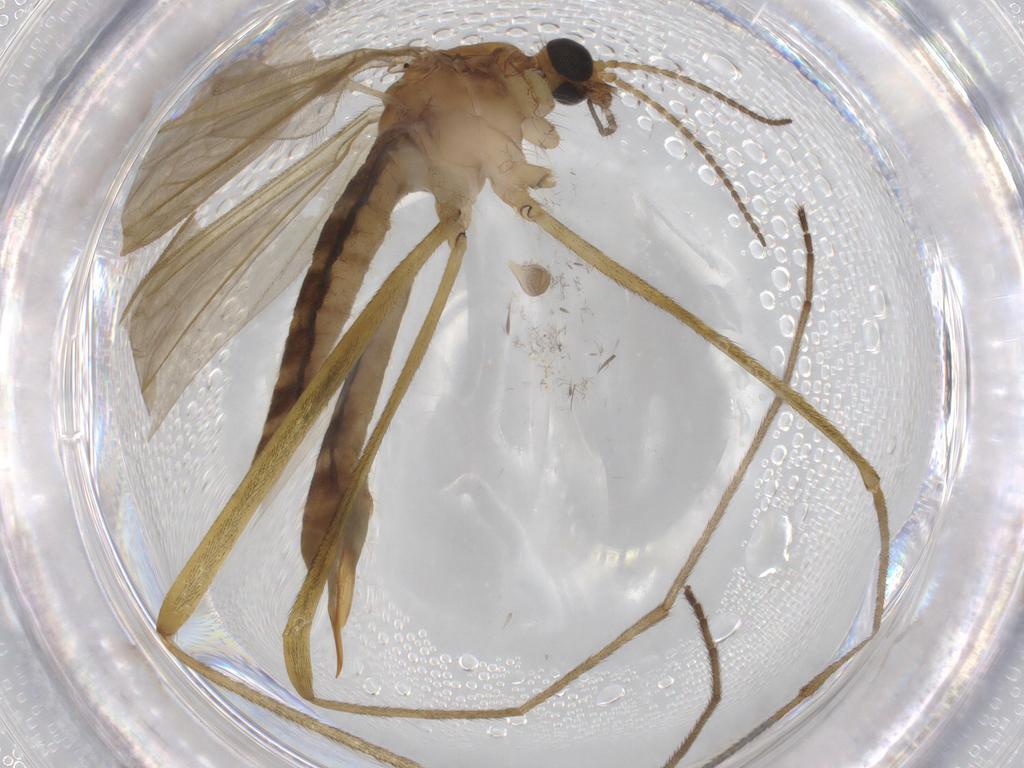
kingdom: Animalia
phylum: Arthropoda
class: Insecta
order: Diptera
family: Cecidomyiidae
